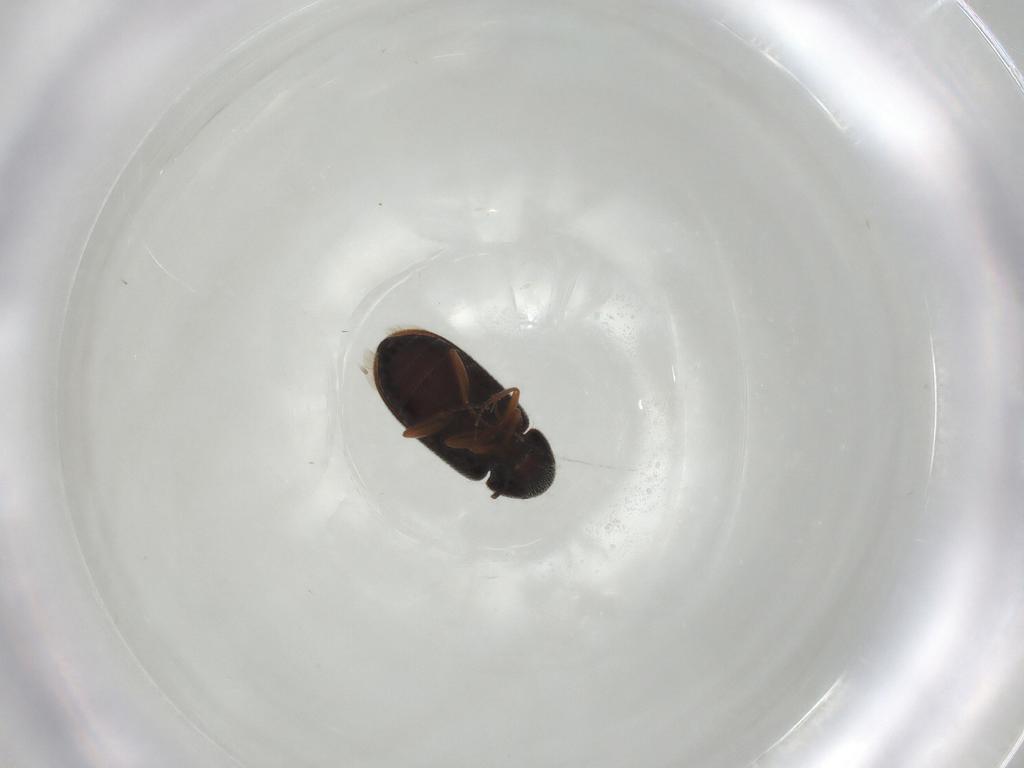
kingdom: Animalia
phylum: Arthropoda
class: Insecta
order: Coleoptera
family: Rhadalidae
